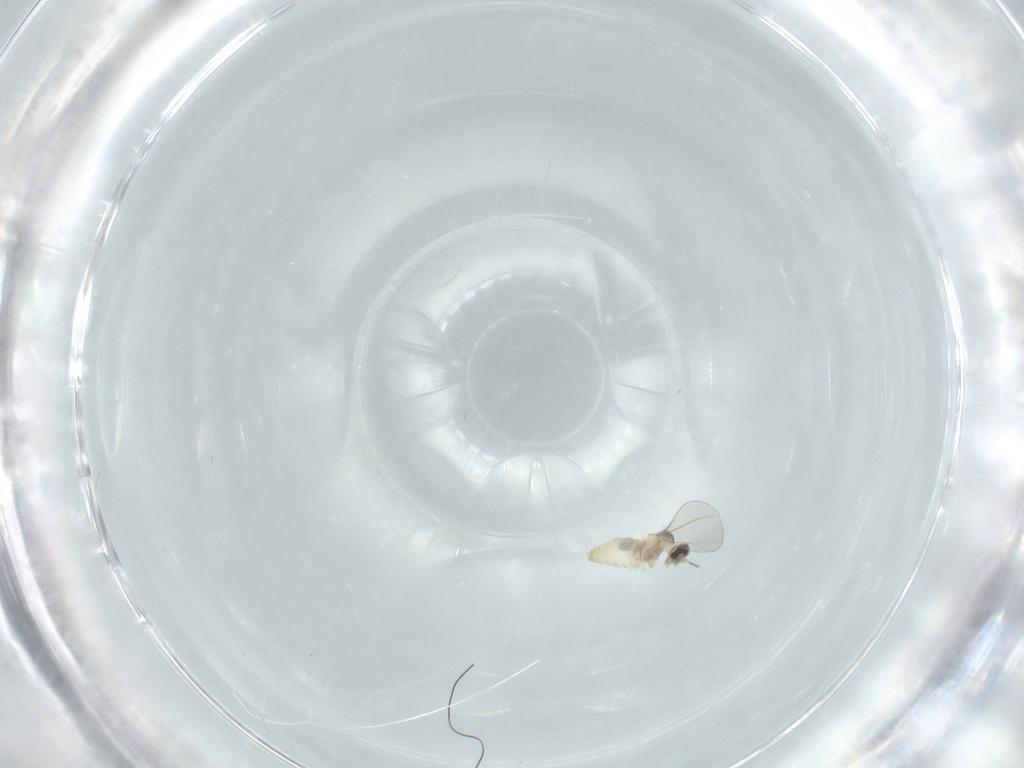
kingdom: Animalia
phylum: Arthropoda
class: Insecta
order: Diptera
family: Cecidomyiidae
